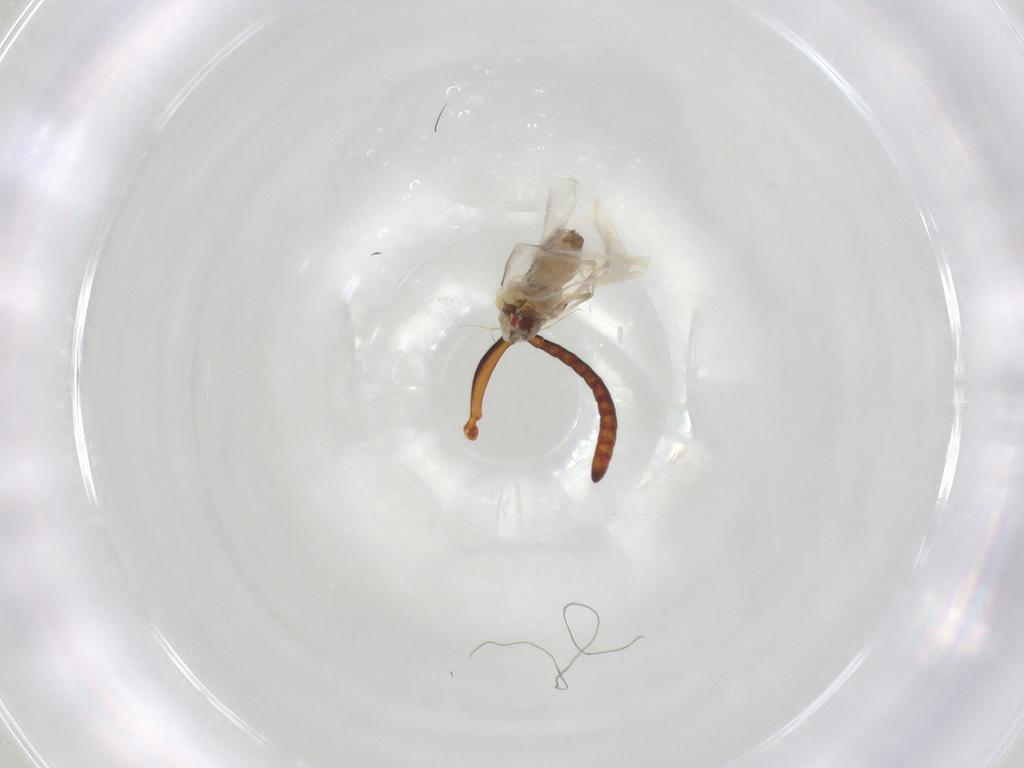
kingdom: Animalia
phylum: Arthropoda
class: Insecta
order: Hemiptera
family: Aleyrodidae
